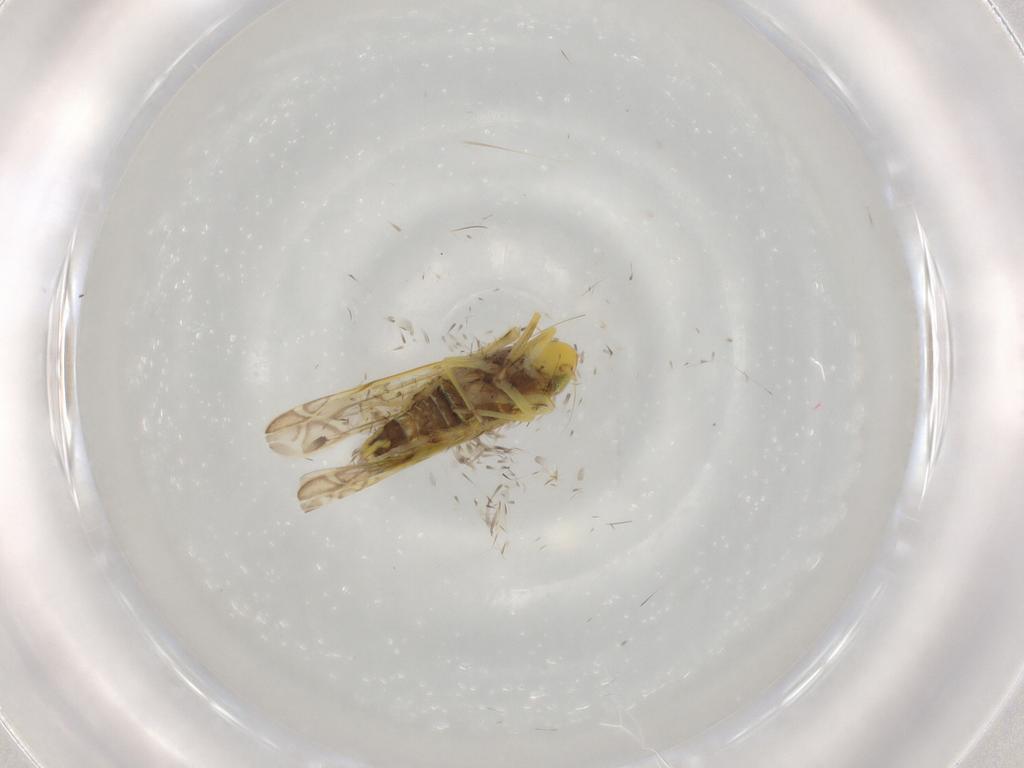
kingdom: Animalia
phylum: Arthropoda
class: Insecta
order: Hemiptera
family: Cicadellidae
